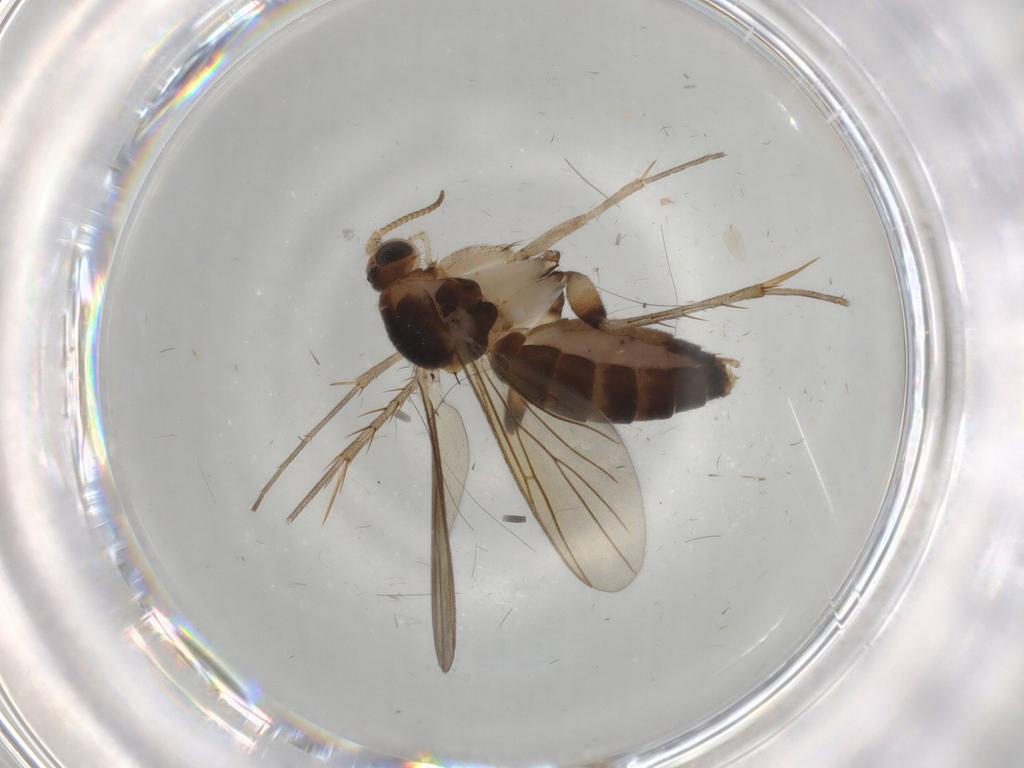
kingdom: Animalia
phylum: Arthropoda
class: Insecta
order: Diptera
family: Mycetophilidae
